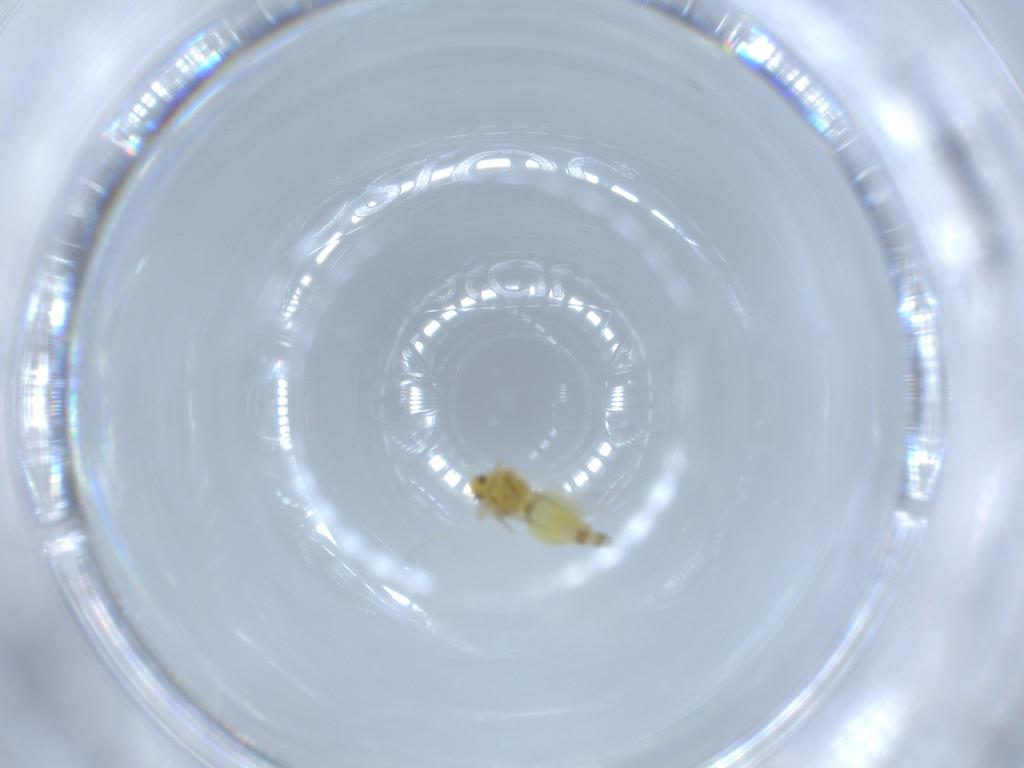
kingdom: Animalia
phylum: Arthropoda
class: Insecta
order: Hemiptera
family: Aleyrodidae
